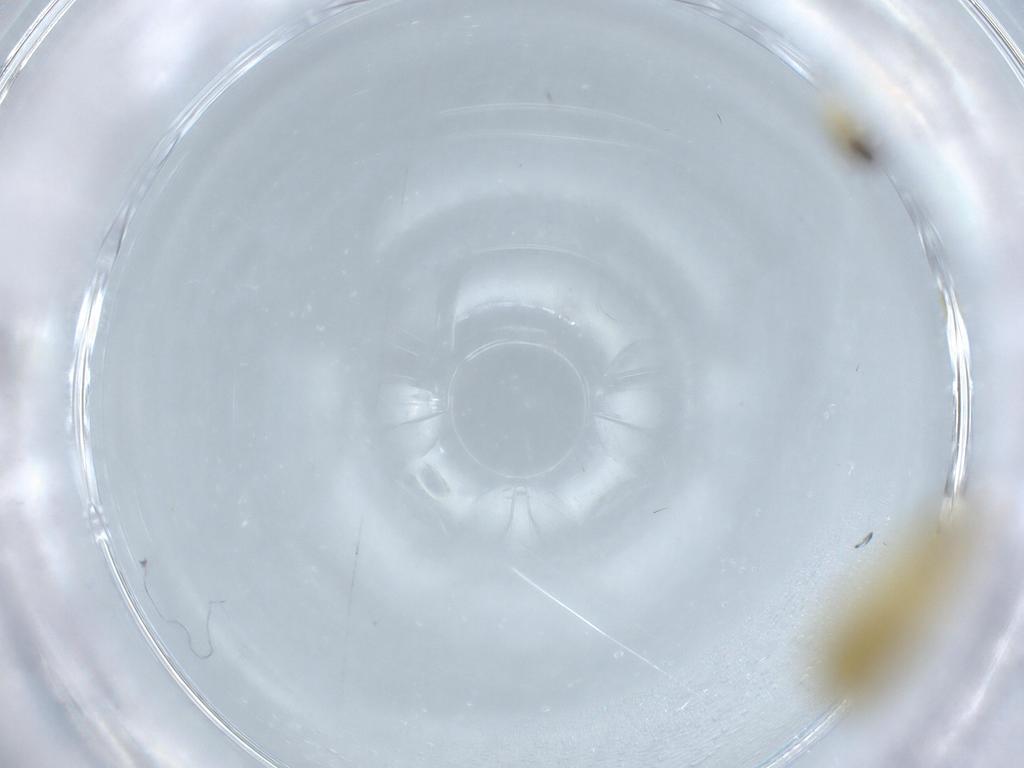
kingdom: Animalia
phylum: Arthropoda
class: Insecta
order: Hemiptera
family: Cicadellidae
